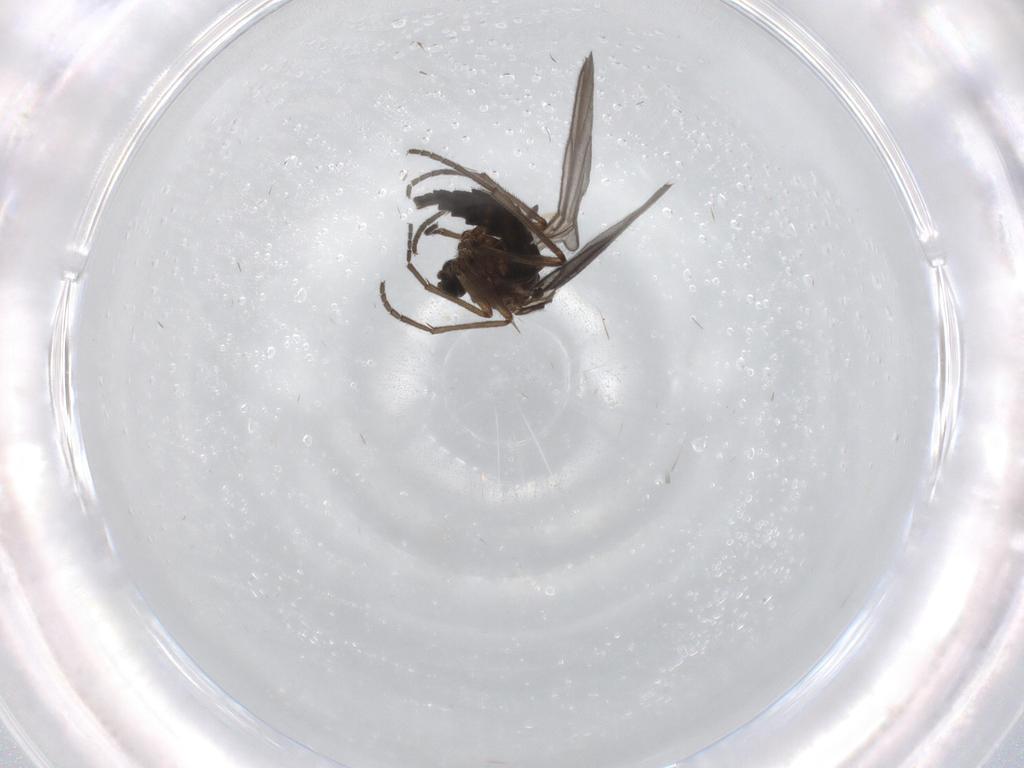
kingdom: Animalia
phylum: Arthropoda
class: Insecta
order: Diptera
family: Sciaridae
